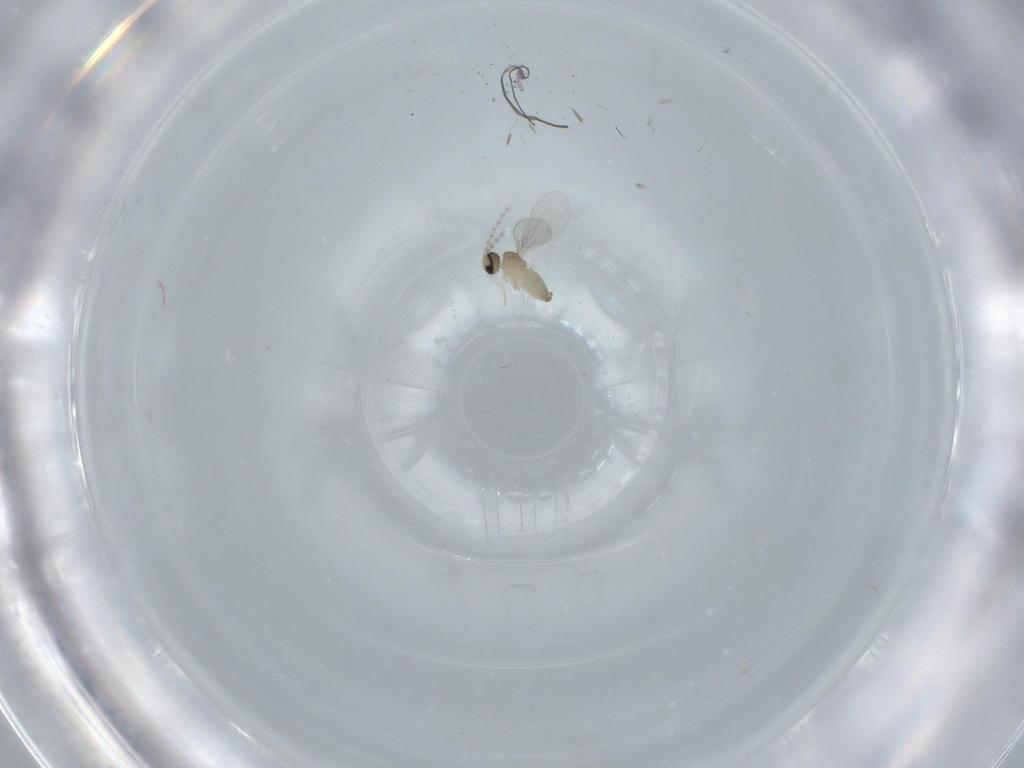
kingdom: Animalia
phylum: Arthropoda
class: Insecta
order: Diptera
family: Cecidomyiidae
